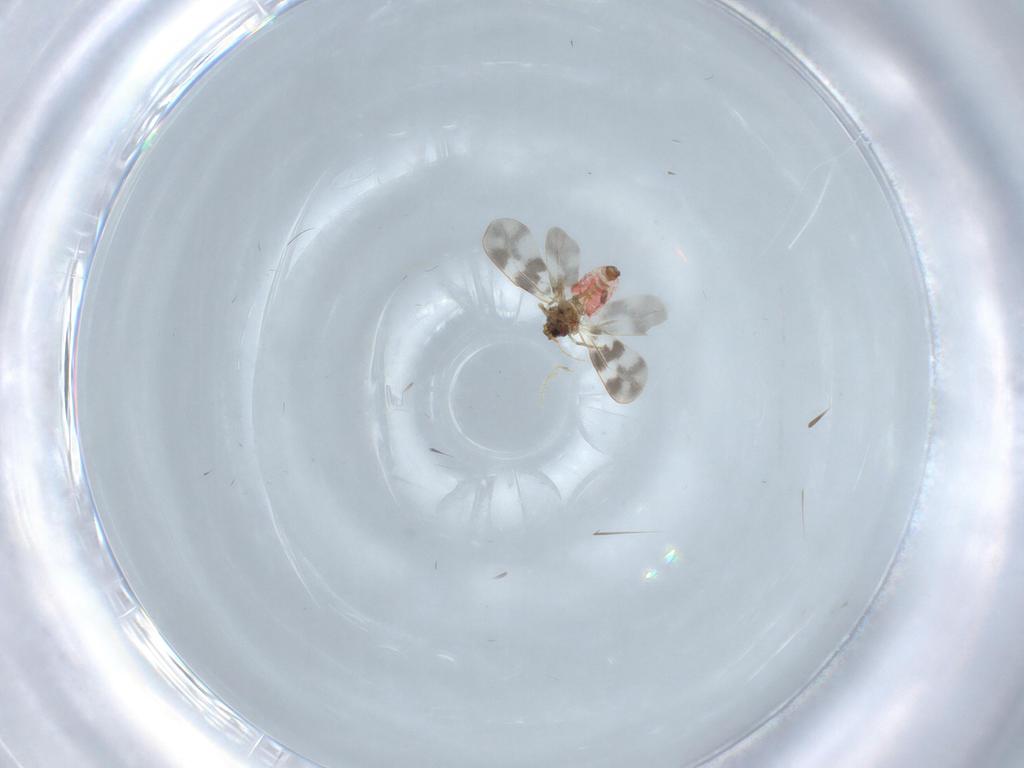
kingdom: Animalia
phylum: Arthropoda
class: Insecta
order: Hemiptera
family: Aleyrodidae
